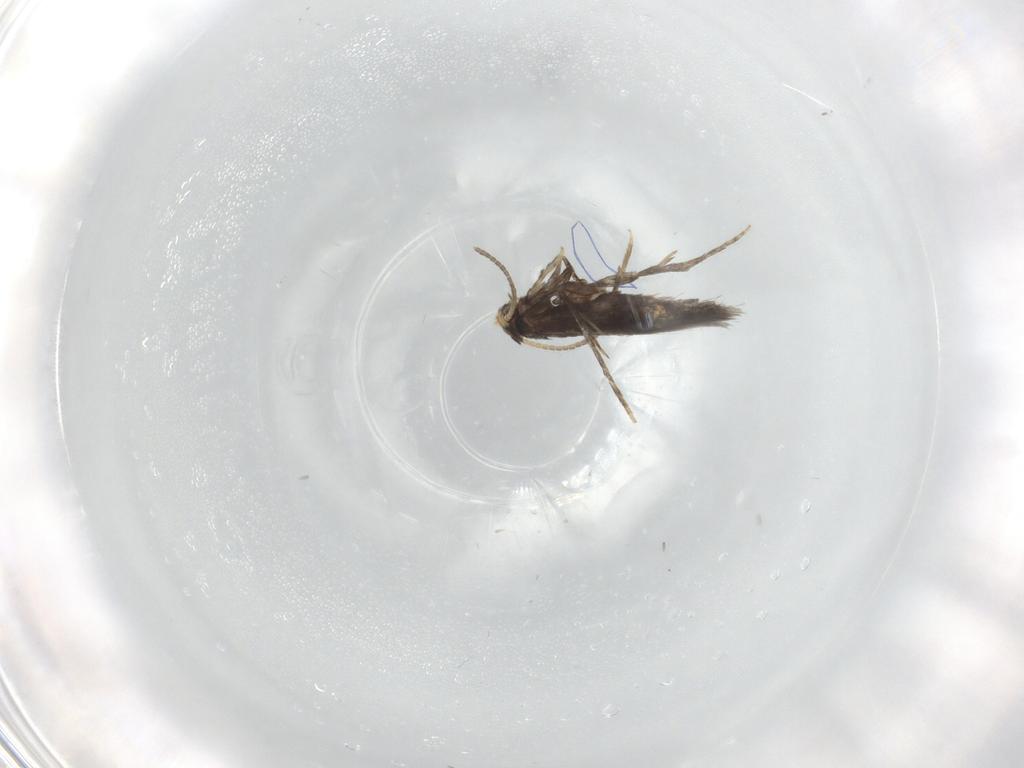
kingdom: Animalia
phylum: Arthropoda
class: Insecta
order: Lepidoptera
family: Nepticulidae
